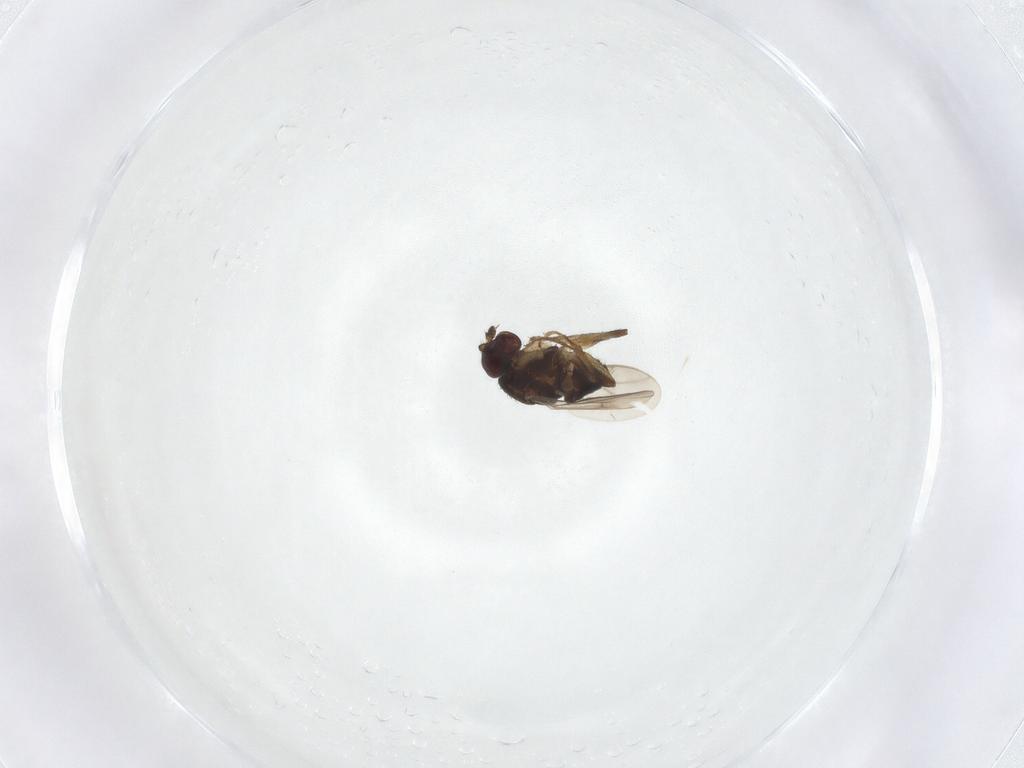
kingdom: Animalia
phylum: Arthropoda
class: Insecta
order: Diptera
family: Sphaeroceridae
